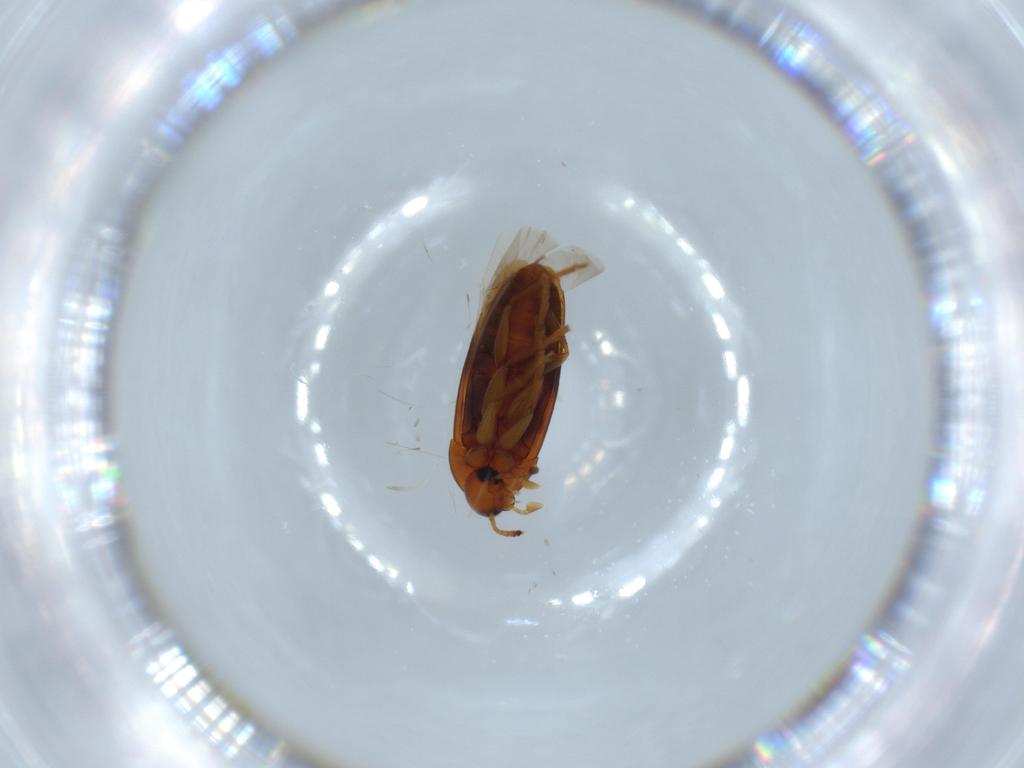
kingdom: Animalia
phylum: Arthropoda
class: Insecta
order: Coleoptera
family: Scraptiidae
